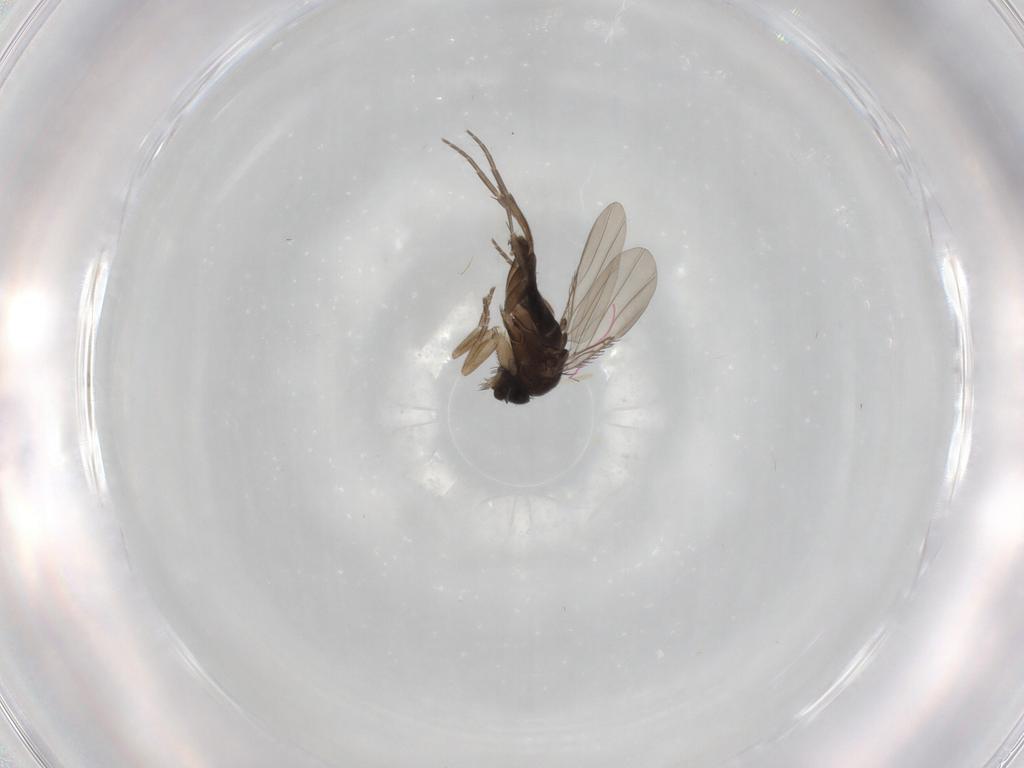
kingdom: Animalia
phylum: Arthropoda
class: Insecta
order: Diptera
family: Phoridae
